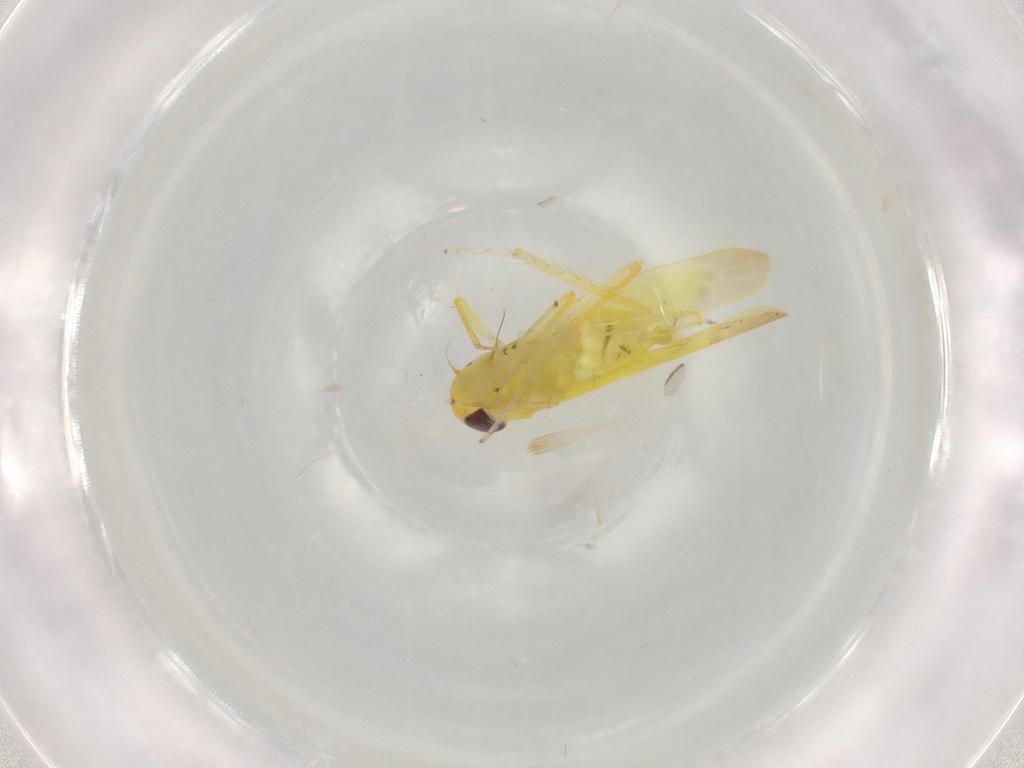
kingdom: Animalia
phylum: Arthropoda
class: Insecta
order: Hemiptera
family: Cicadellidae
